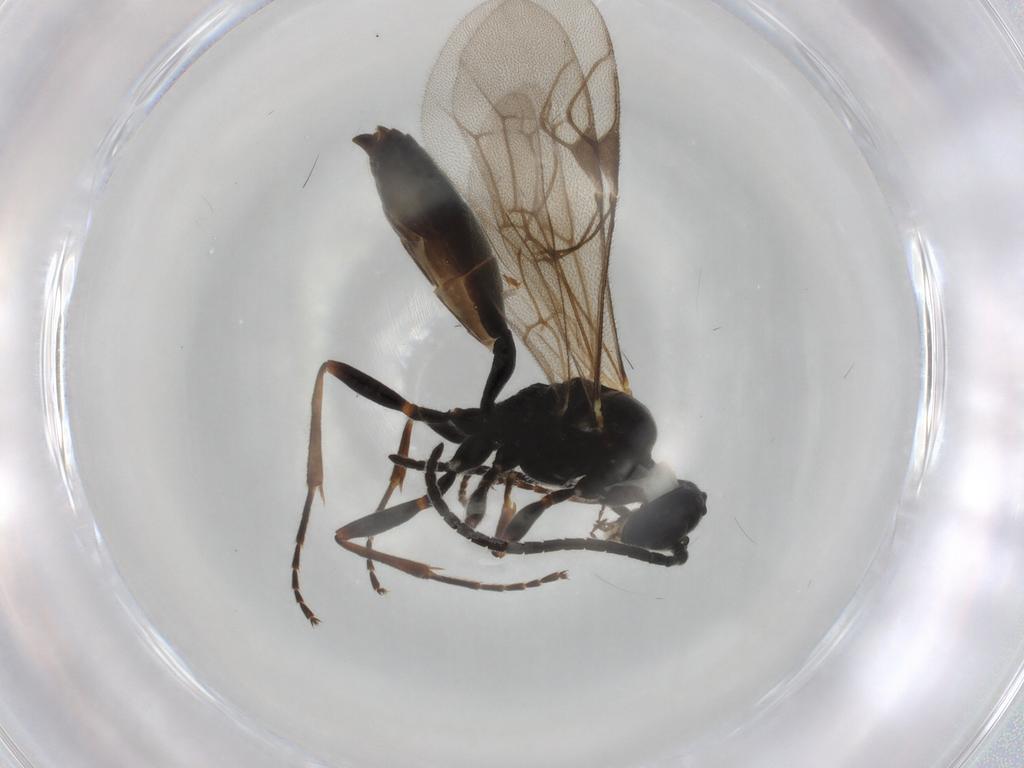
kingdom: Animalia
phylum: Arthropoda
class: Insecta
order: Hymenoptera
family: Ichneumonidae
